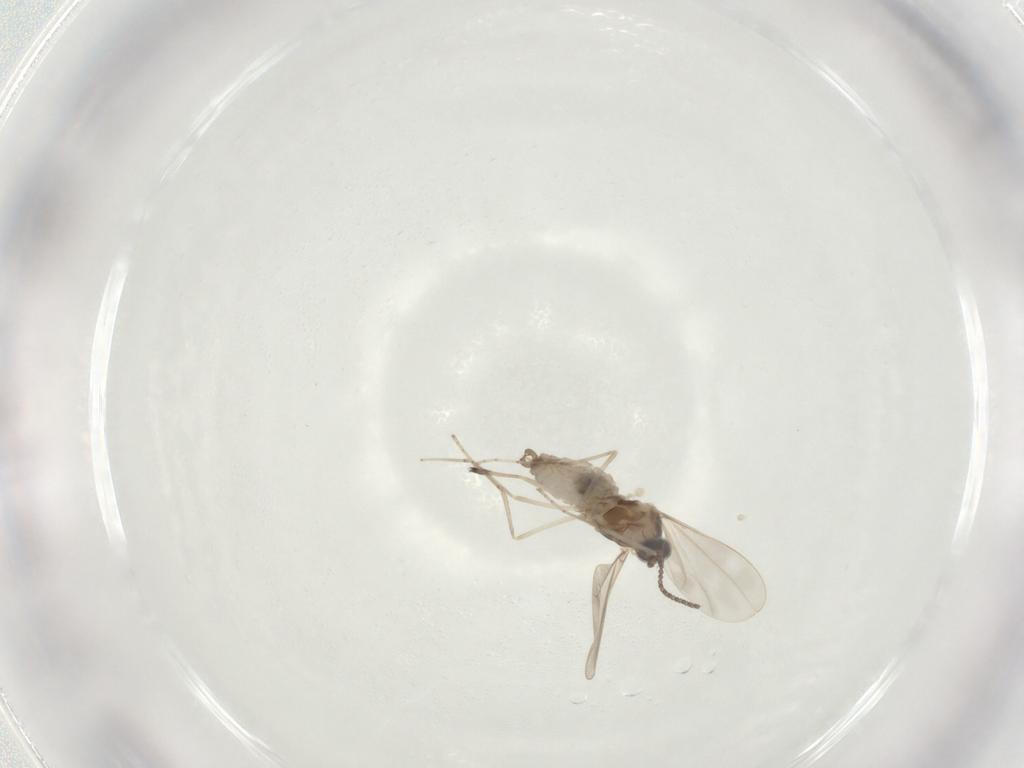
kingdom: Animalia
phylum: Arthropoda
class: Insecta
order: Diptera
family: Cecidomyiidae
